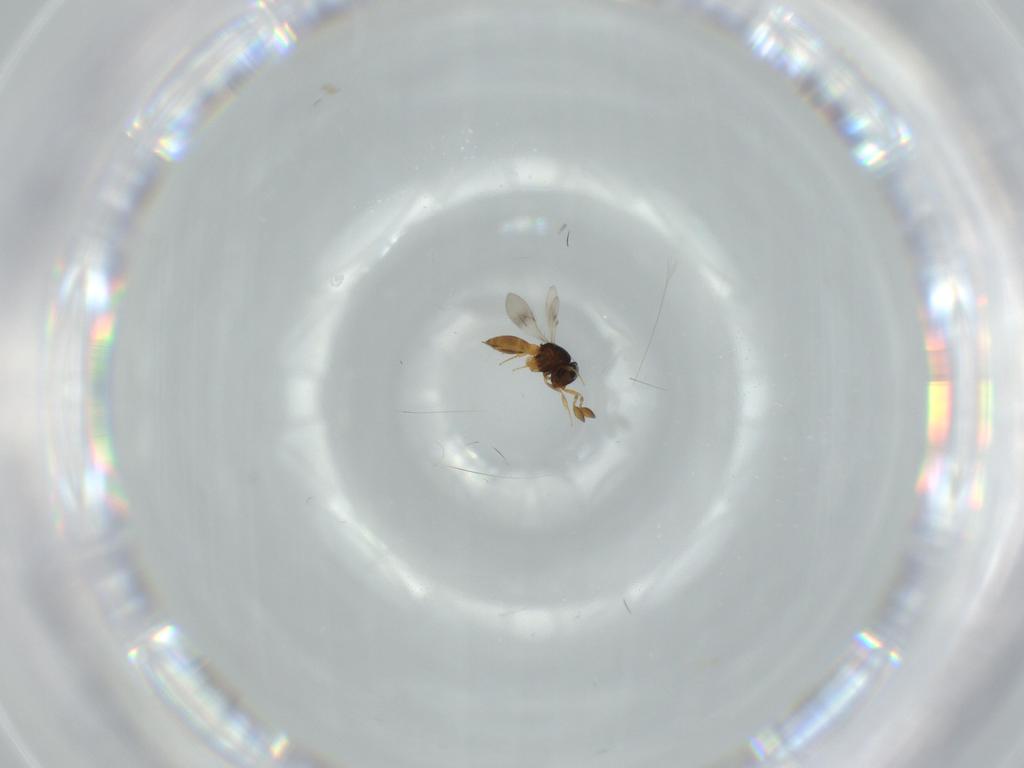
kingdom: Animalia
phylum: Arthropoda
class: Insecta
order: Hymenoptera
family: Scelionidae
